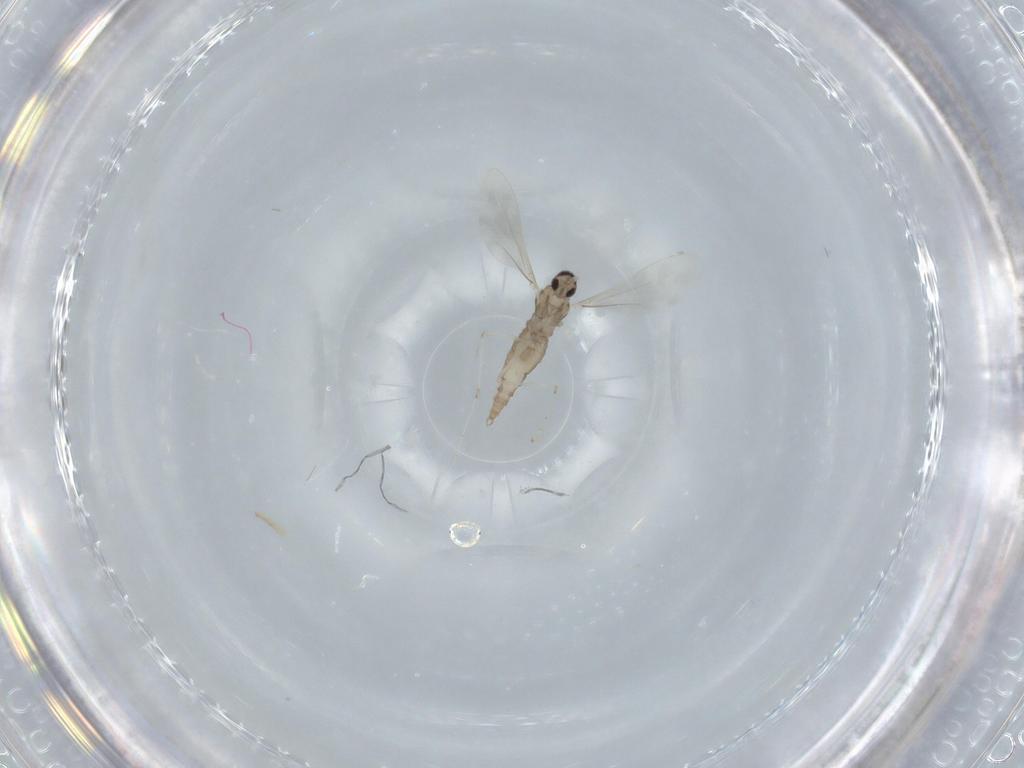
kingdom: Animalia
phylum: Arthropoda
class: Insecta
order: Diptera
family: Cecidomyiidae
